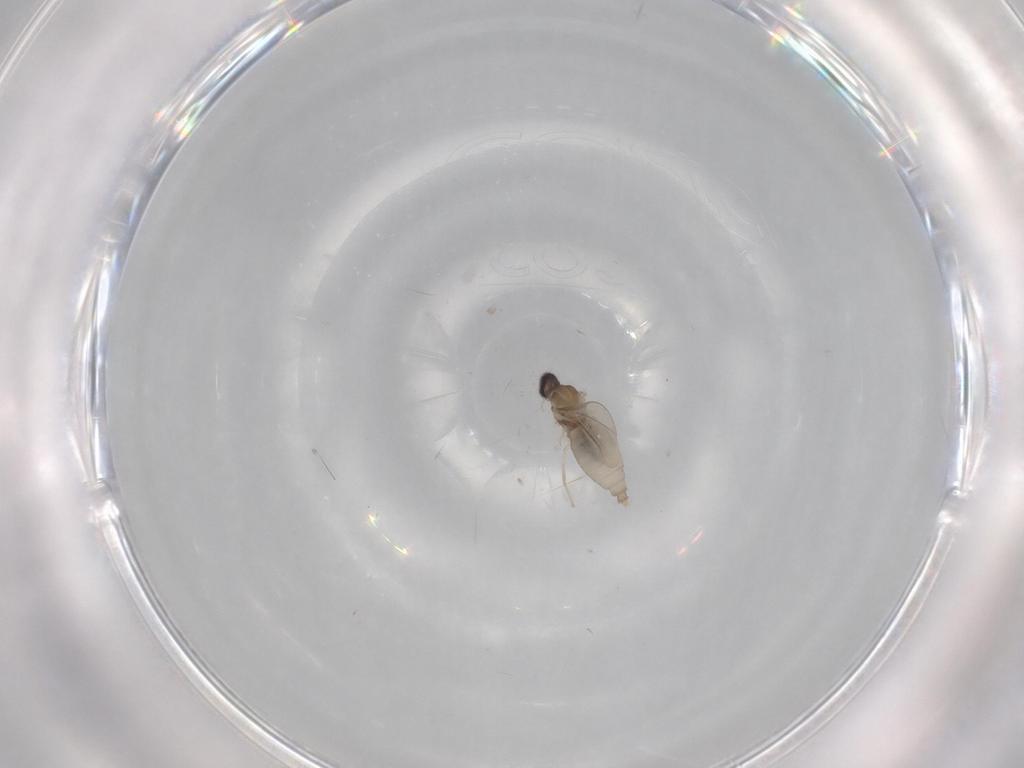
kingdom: Animalia
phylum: Arthropoda
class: Insecta
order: Diptera
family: Cecidomyiidae
